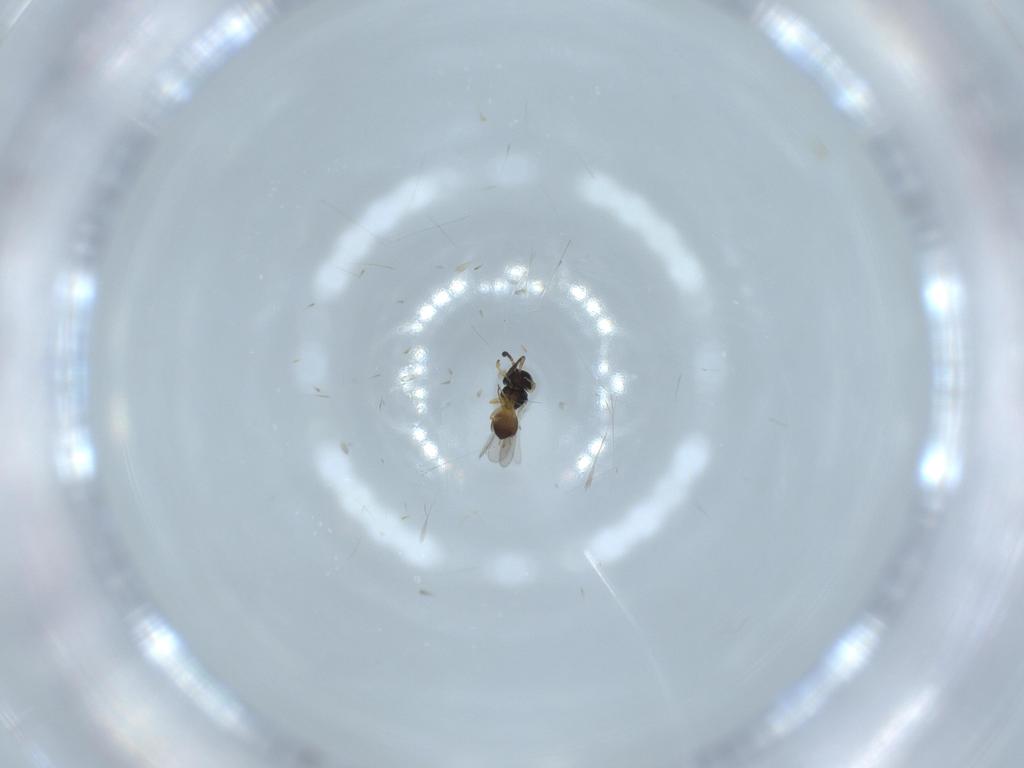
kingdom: Animalia
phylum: Arthropoda
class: Insecta
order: Hymenoptera
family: Scelionidae
